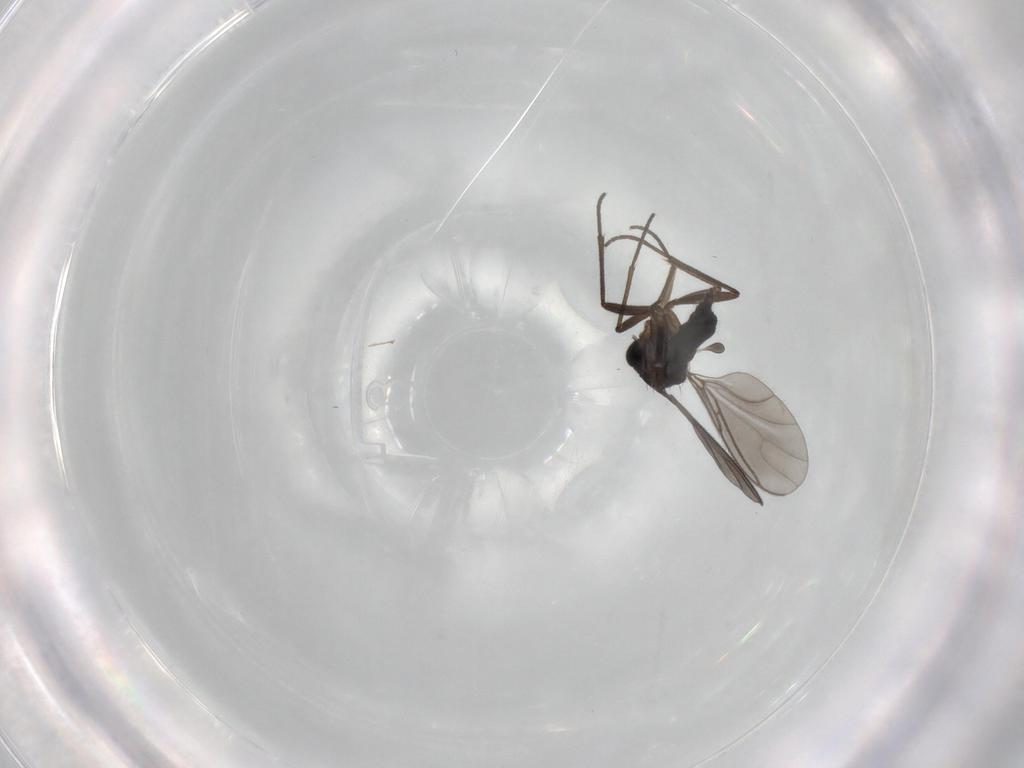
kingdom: Animalia
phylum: Arthropoda
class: Insecta
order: Diptera
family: Sciaridae
